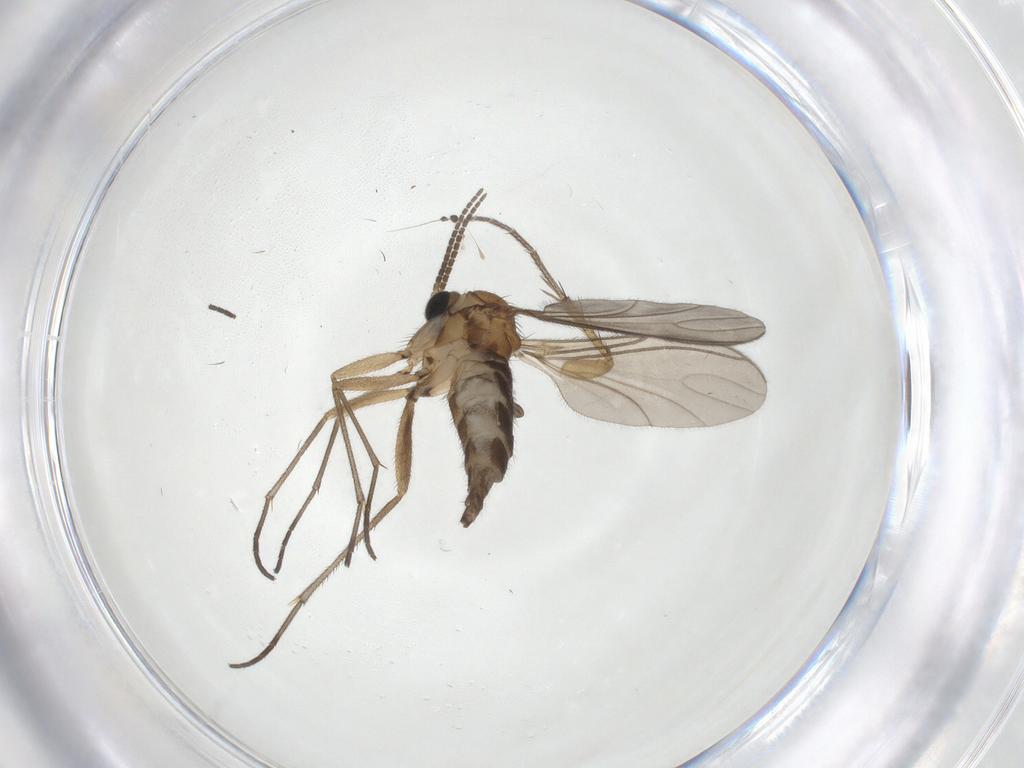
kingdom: Animalia
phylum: Arthropoda
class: Insecta
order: Diptera
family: Sciaridae
